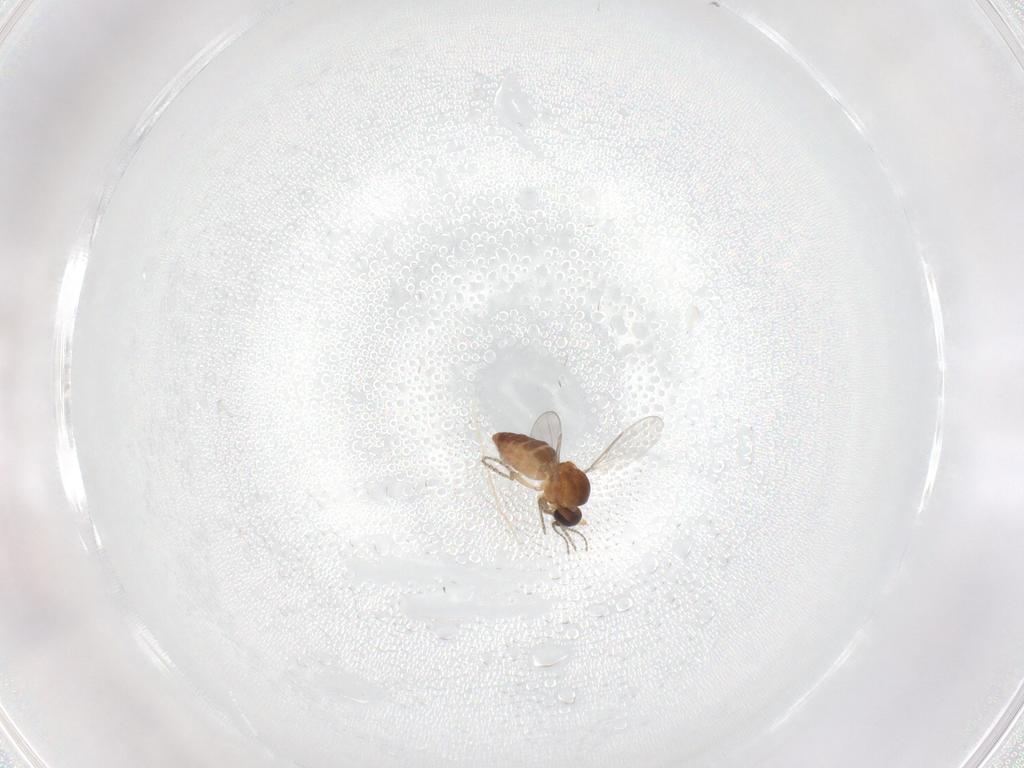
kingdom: Animalia
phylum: Arthropoda
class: Insecta
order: Diptera
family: Ceratopogonidae
